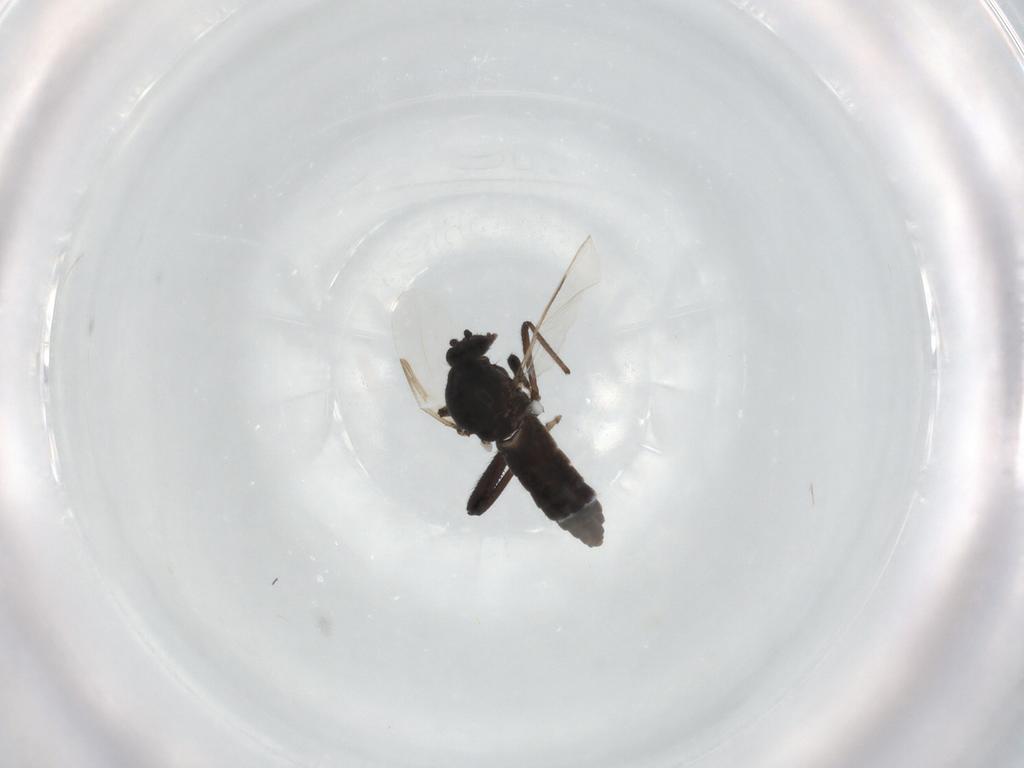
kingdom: Animalia
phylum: Arthropoda
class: Insecta
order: Diptera
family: Ceratopogonidae
